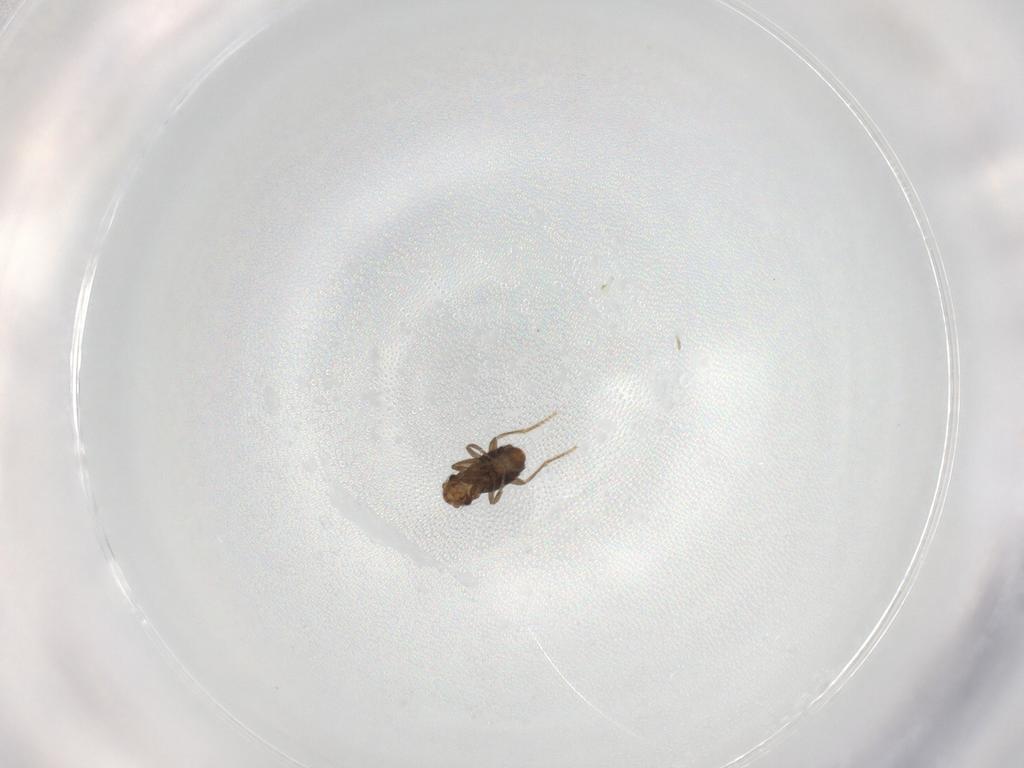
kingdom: Animalia
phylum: Arthropoda
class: Insecta
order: Diptera
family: Phoridae
